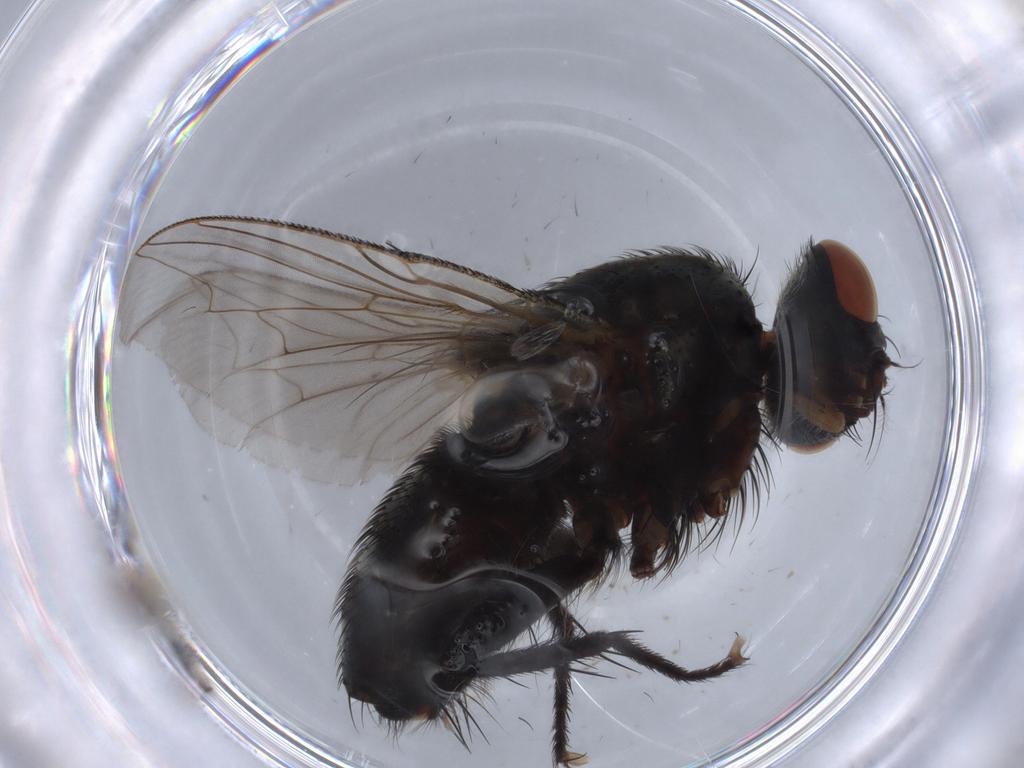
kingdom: Animalia
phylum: Arthropoda
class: Insecta
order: Diptera
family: Sarcophagidae
